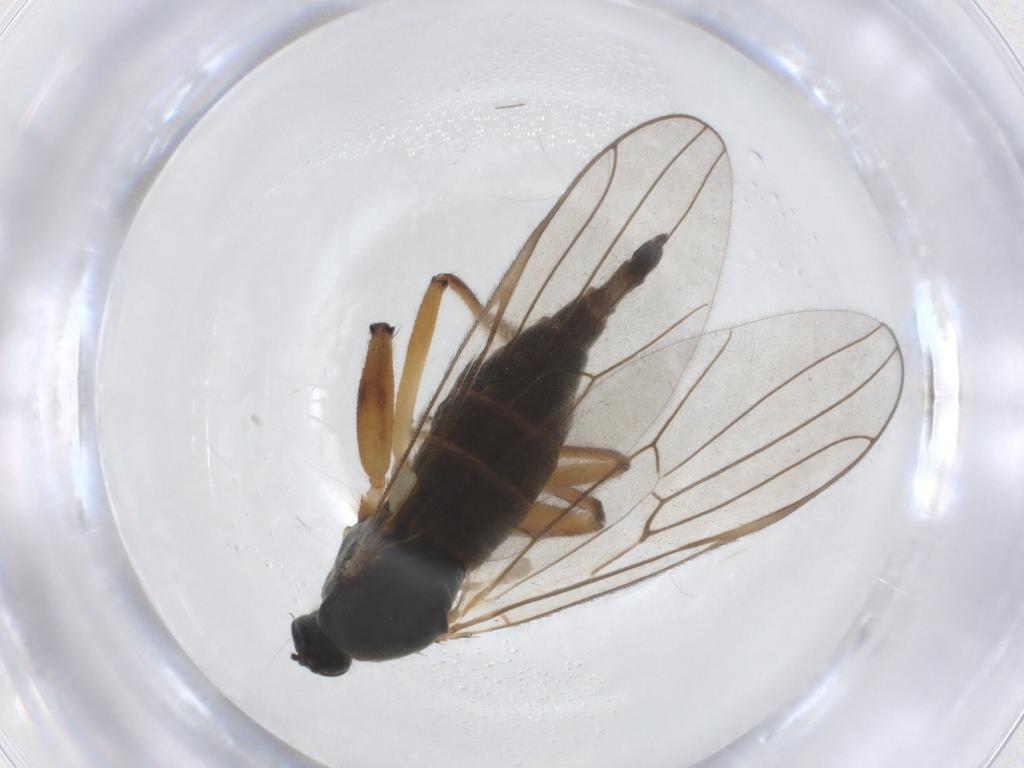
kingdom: Animalia
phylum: Arthropoda
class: Insecta
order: Diptera
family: Hybotidae
